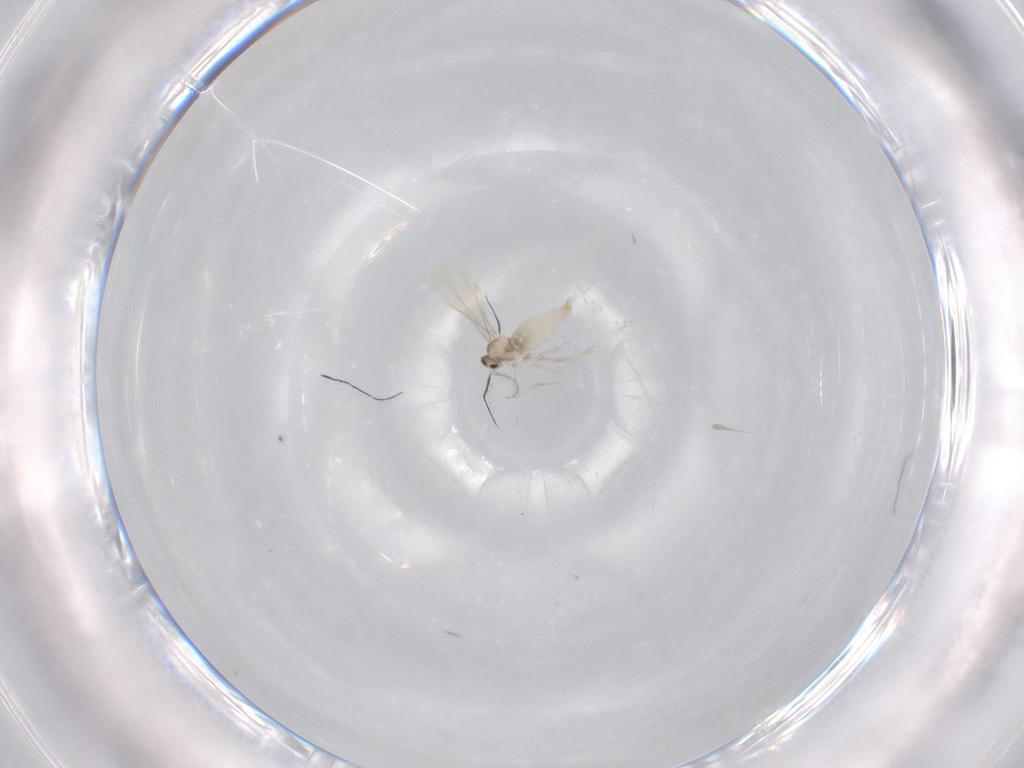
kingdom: Animalia
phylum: Arthropoda
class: Insecta
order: Diptera
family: Cecidomyiidae
